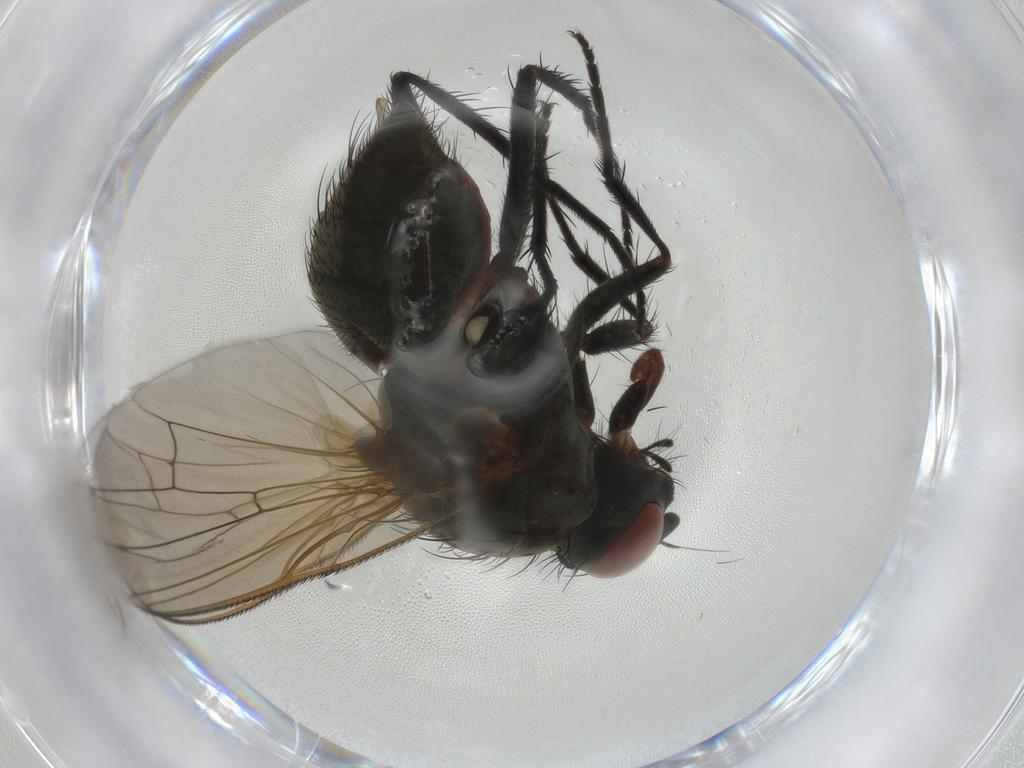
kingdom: Animalia
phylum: Arthropoda
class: Insecta
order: Diptera
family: Anthomyiidae
